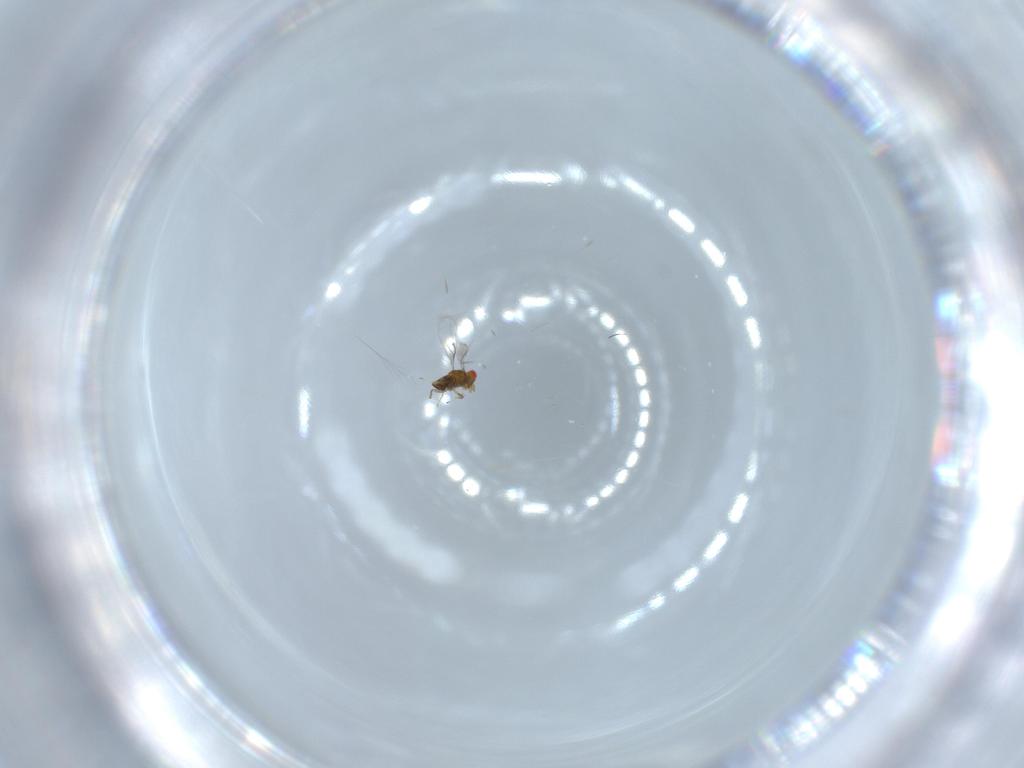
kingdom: Animalia
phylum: Arthropoda
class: Insecta
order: Hymenoptera
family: Trichogrammatidae
